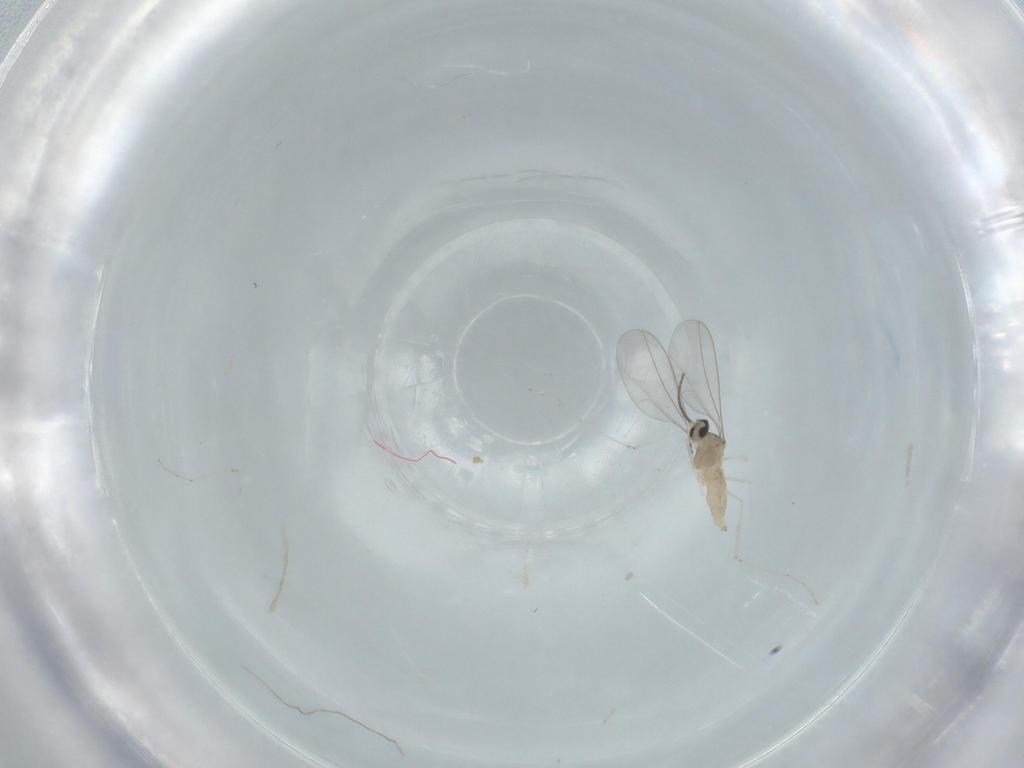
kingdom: Animalia
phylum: Arthropoda
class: Insecta
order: Diptera
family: Cecidomyiidae
